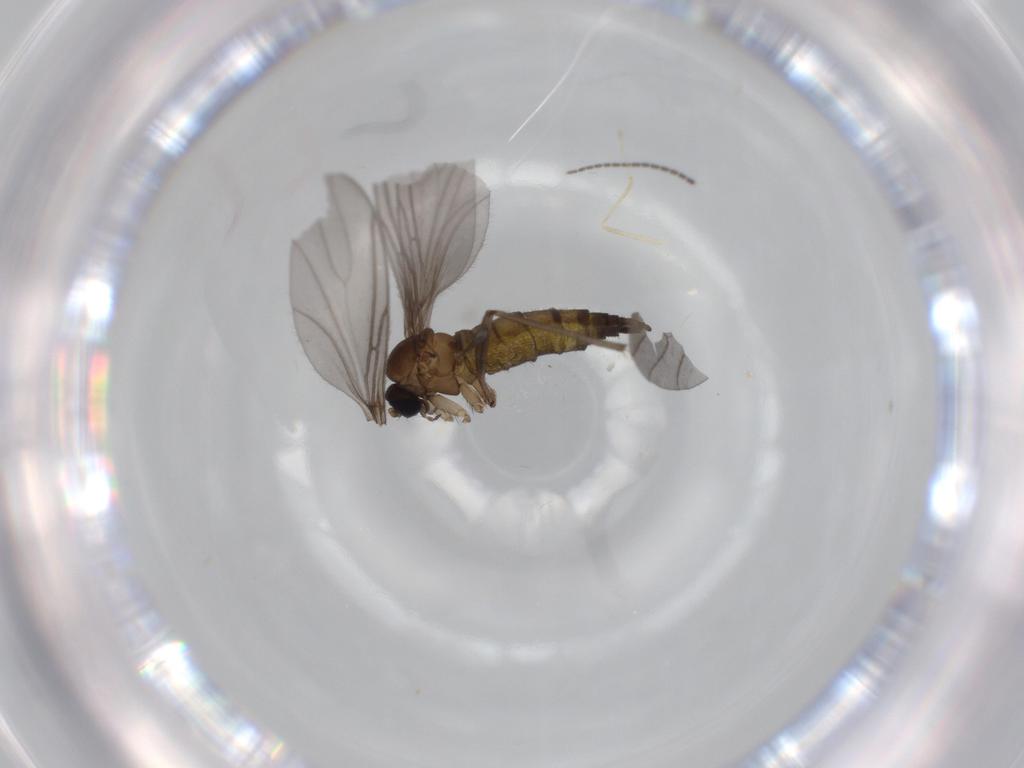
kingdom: Animalia
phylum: Arthropoda
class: Insecta
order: Diptera
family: Sciaridae
